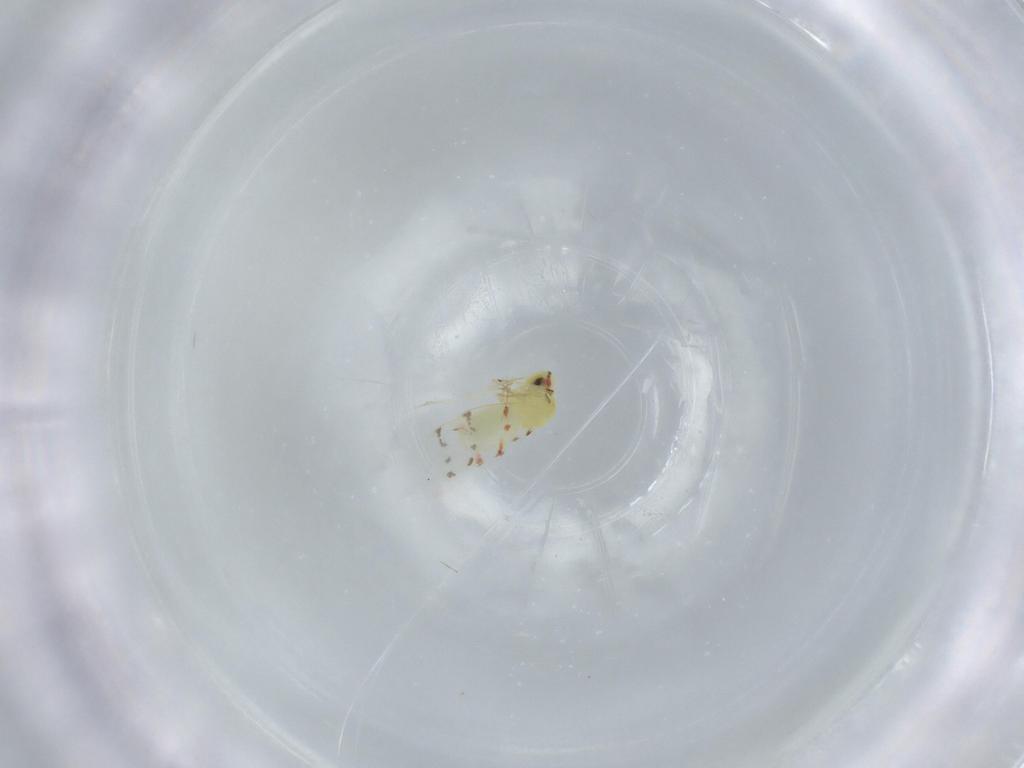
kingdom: Animalia
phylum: Arthropoda
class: Insecta
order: Hemiptera
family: Aleyrodidae
